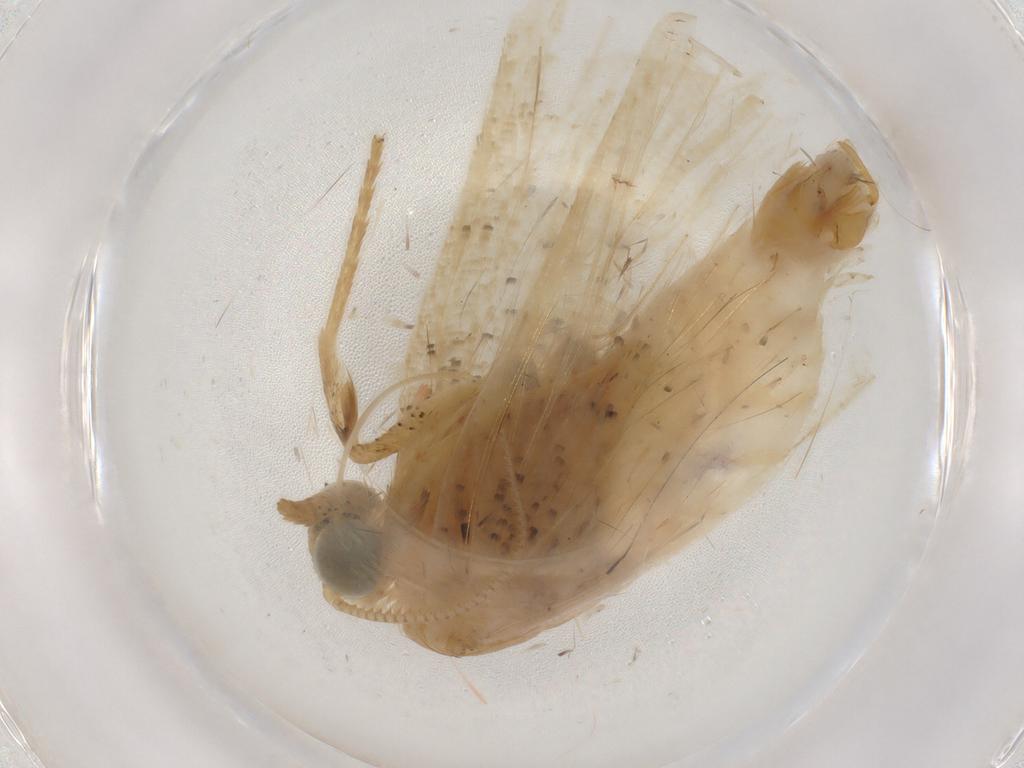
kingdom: Animalia
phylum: Arthropoda
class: Insecta
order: Lepidoptera
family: Erebidae
